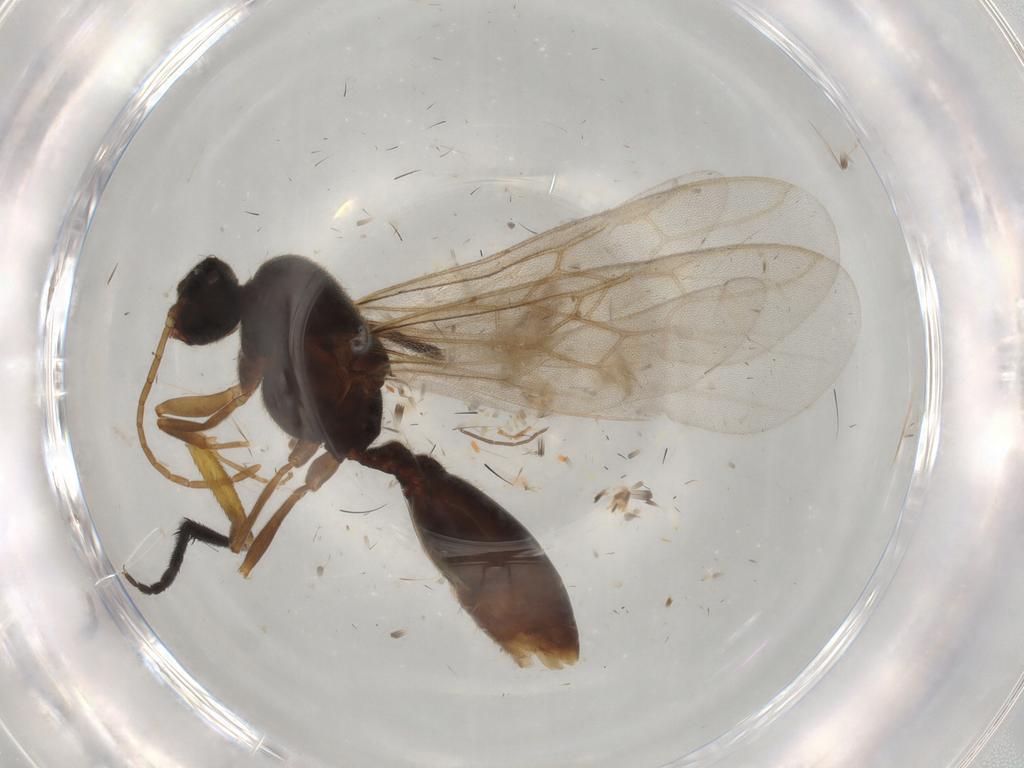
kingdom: Animalia
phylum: Arthropoda
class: Insecta
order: Hymenoptera
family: Formicidae
